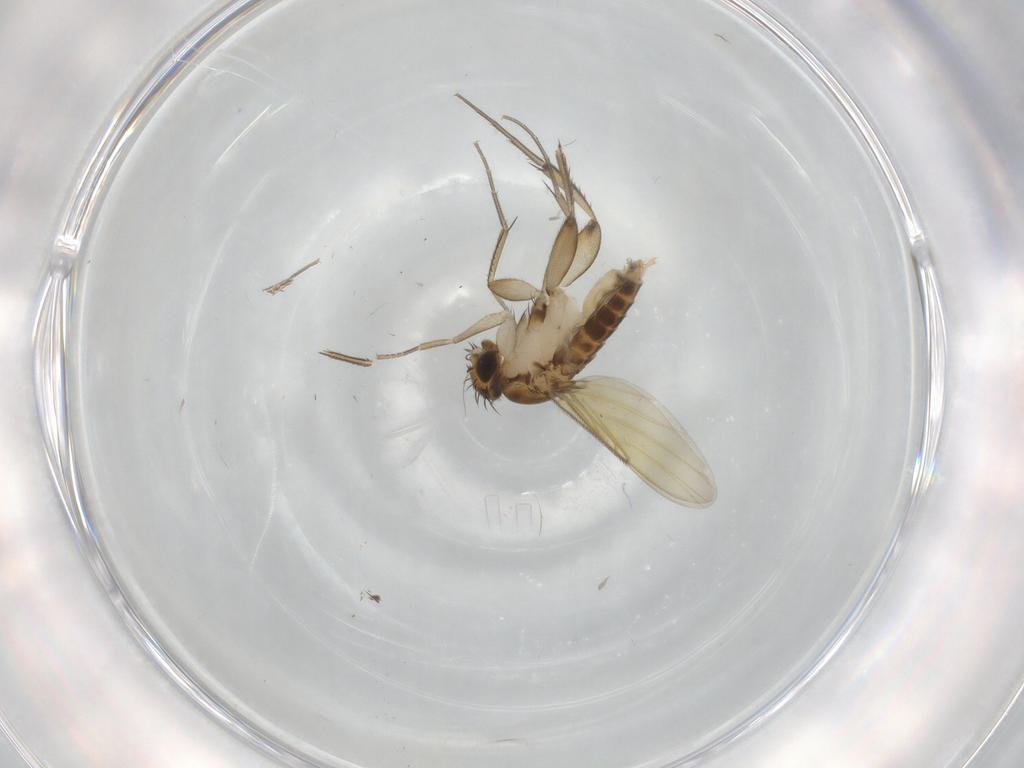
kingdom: Animalia
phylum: Arthropoda
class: Insecta
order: Diptera
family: Phoridae
